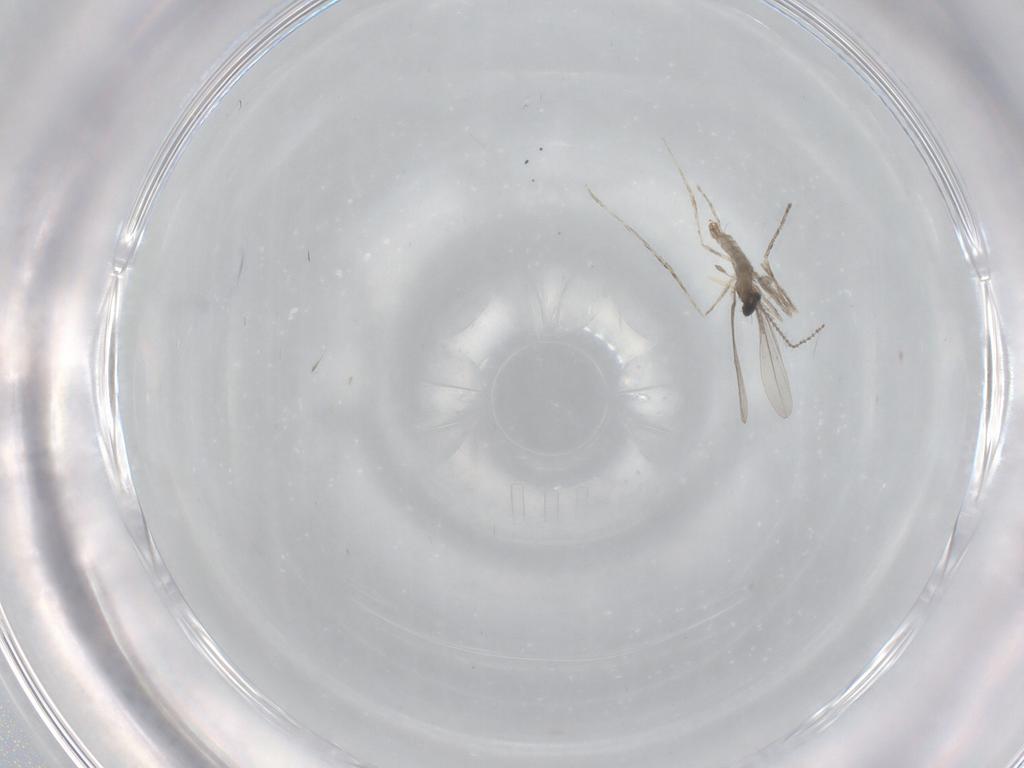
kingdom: Animalia
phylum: Arthropoda
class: Insecta
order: Diptera
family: Cecidomyiidae
